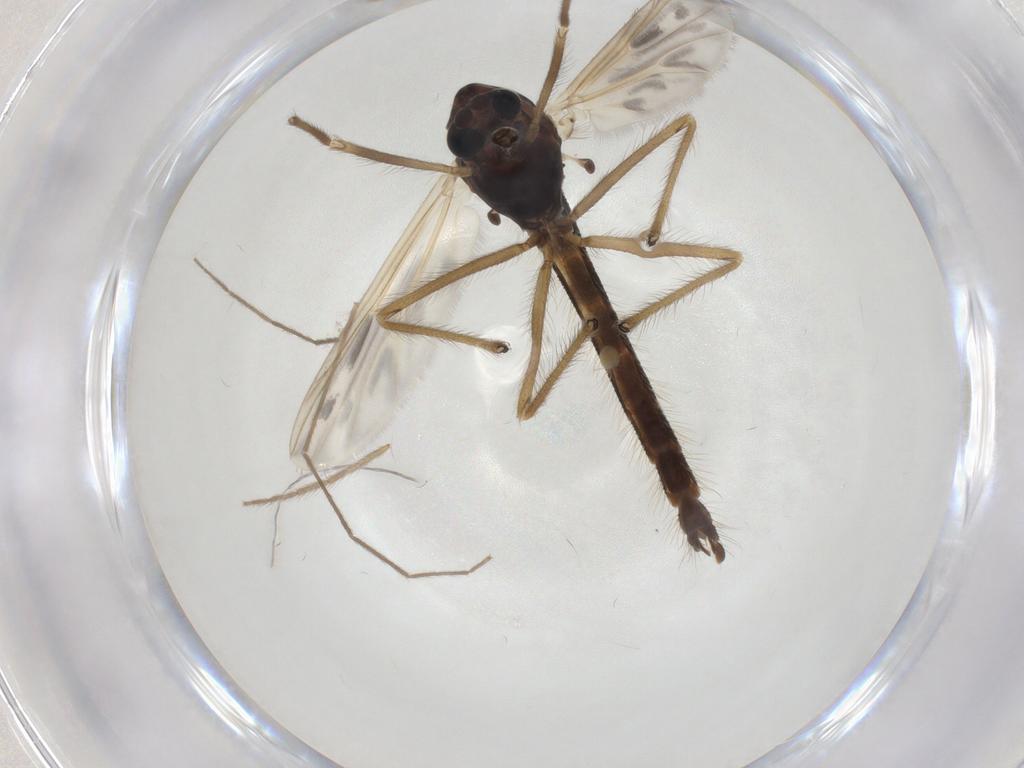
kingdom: Animalia
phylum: Arthropoda
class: Insecta
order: Diptera
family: Chironomidae
